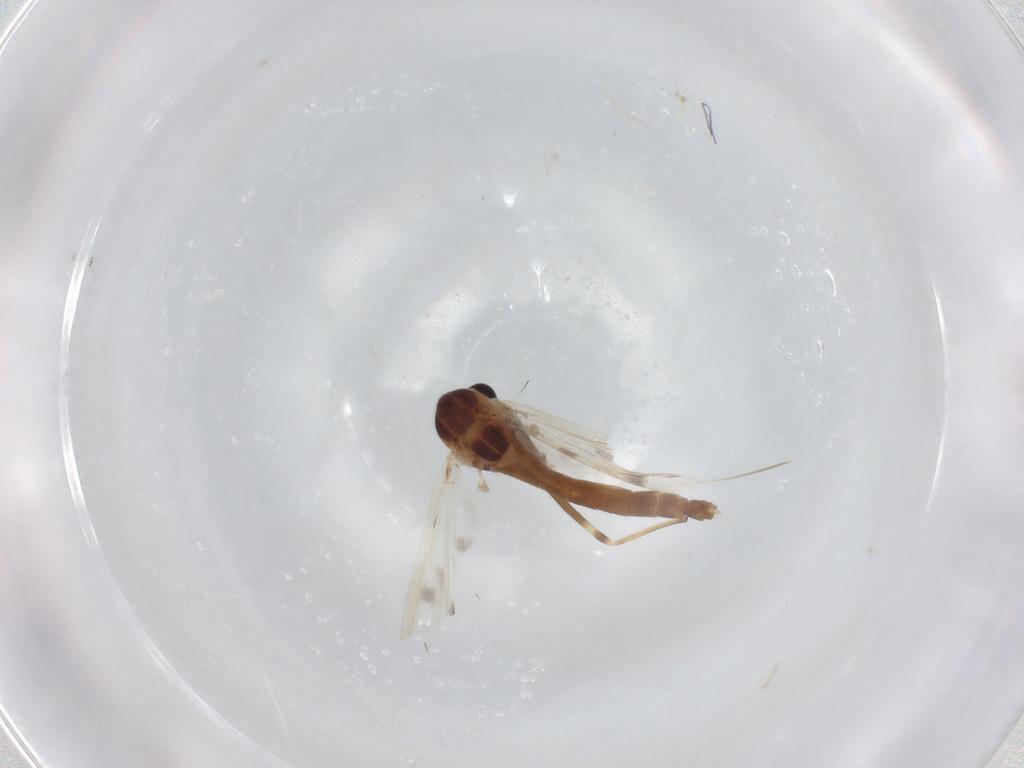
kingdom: Animalia
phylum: Arthropoda
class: Insecta
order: Diptera
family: Chironomidae
